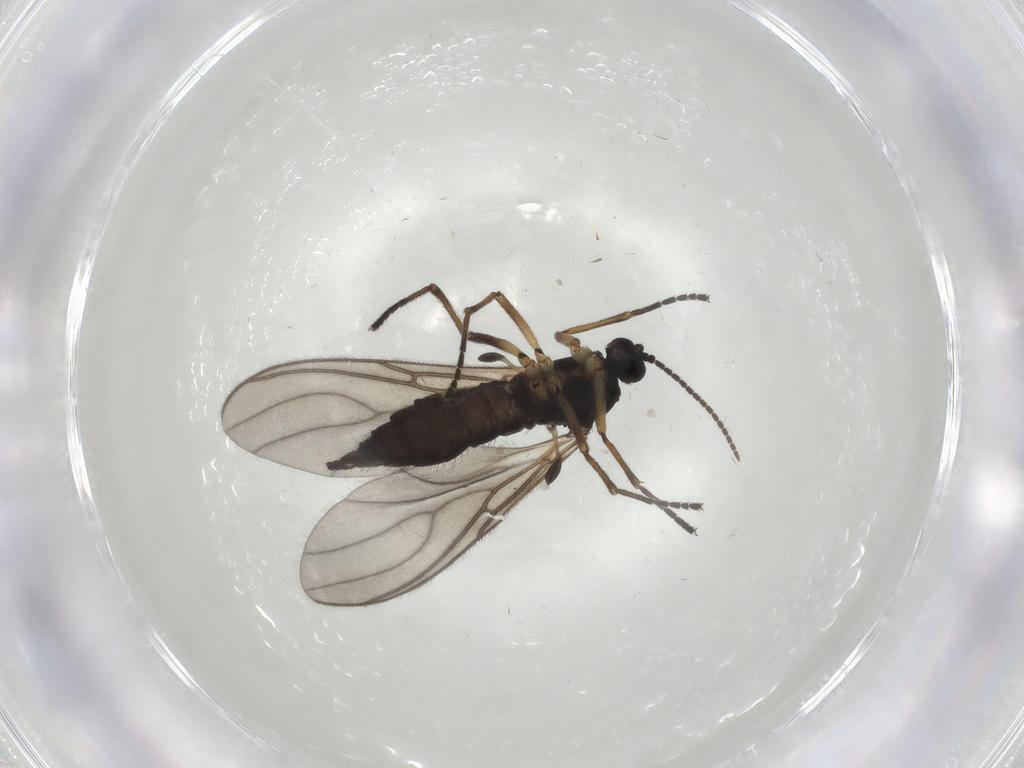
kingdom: Animalia
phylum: Arthropoda
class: Insecta
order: Diptera
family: Sciaridae
